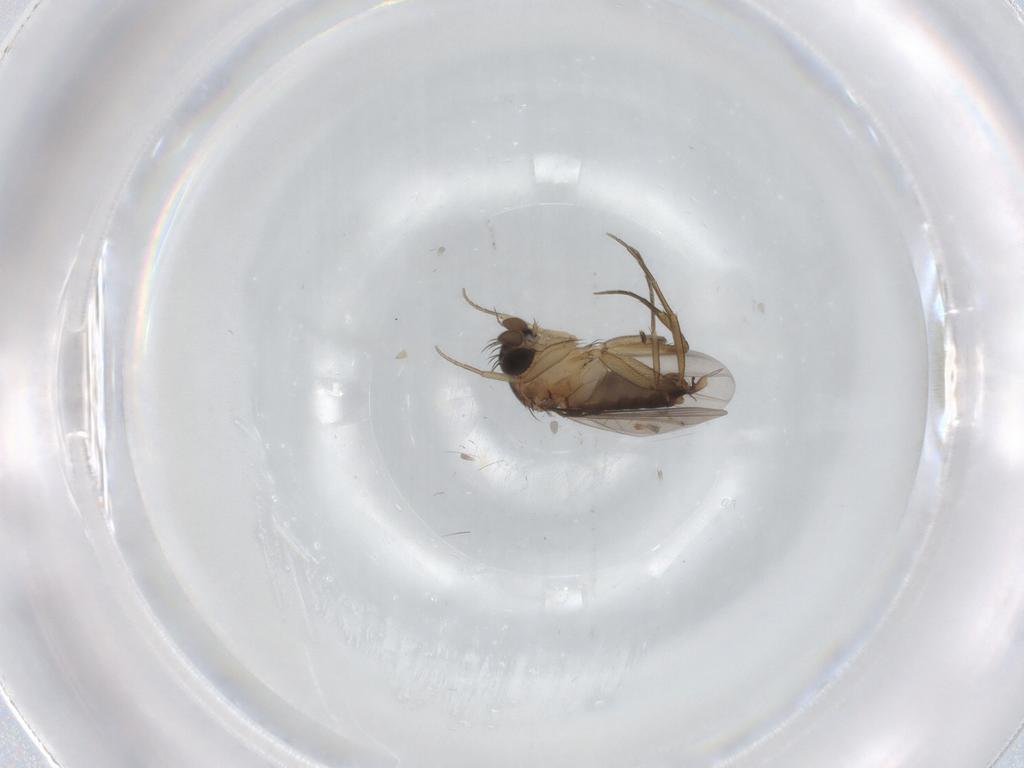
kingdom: Animalia
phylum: Arthropoda
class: Insecta
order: Diptera
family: Phoridae
